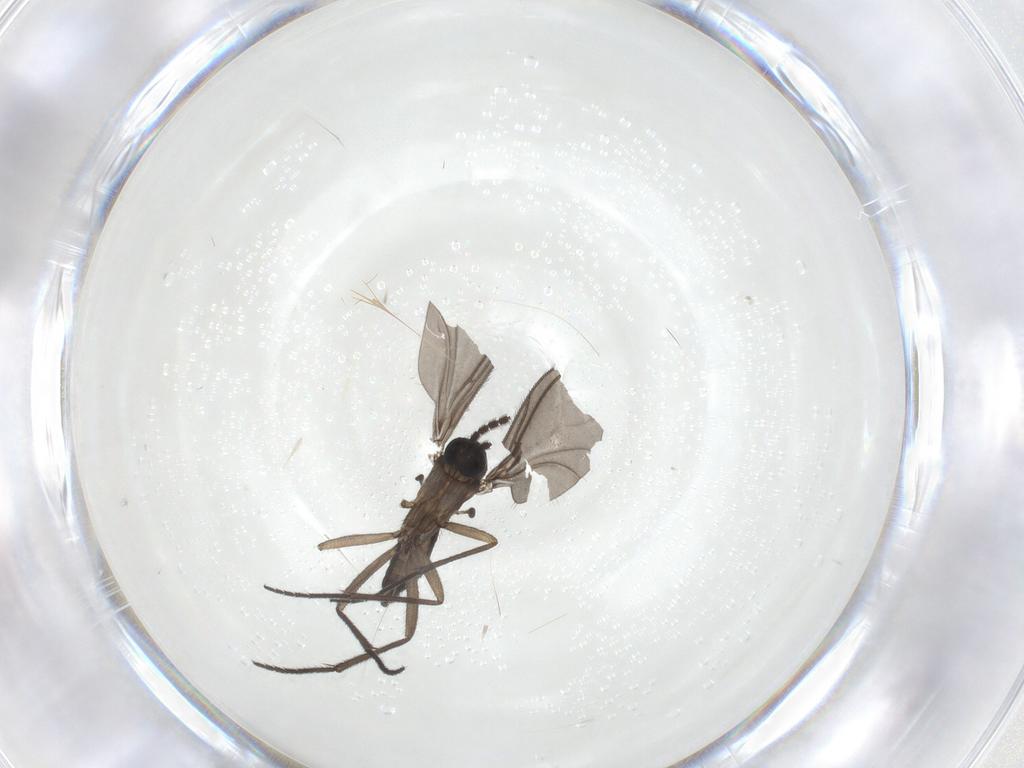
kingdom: Animalia
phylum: Arthropoda
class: Insecta
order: Diptera
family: Sciaridae
